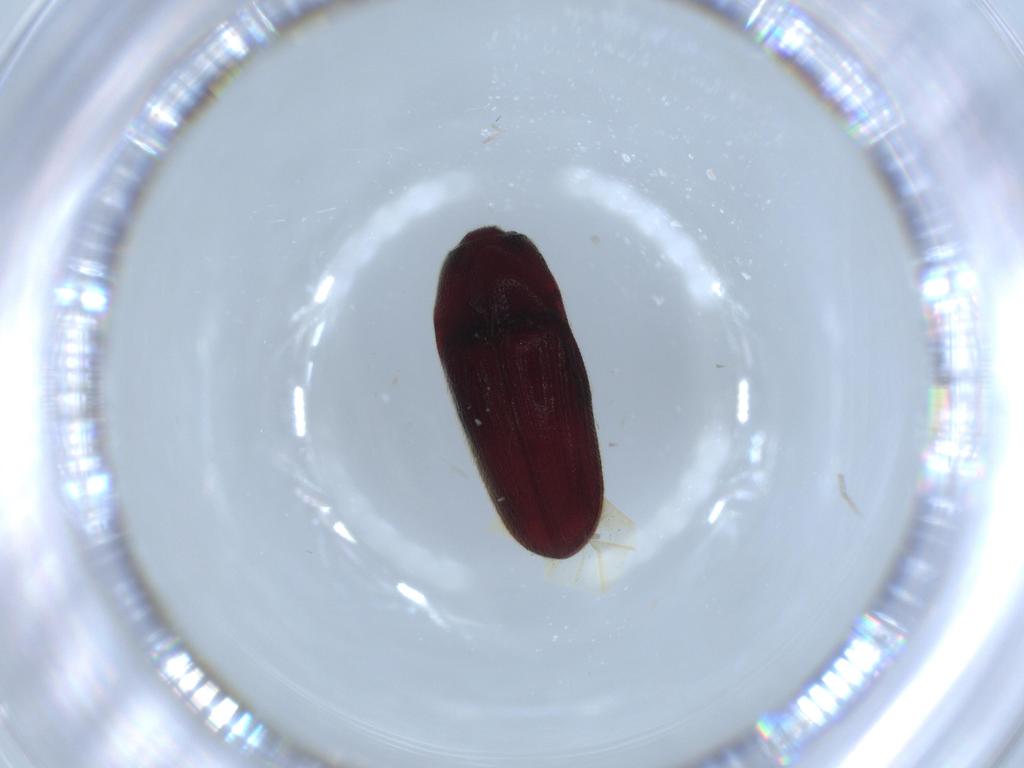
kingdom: Animalia
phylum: Arthropoda
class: Insecta
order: Coleoptera
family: Throscidae
